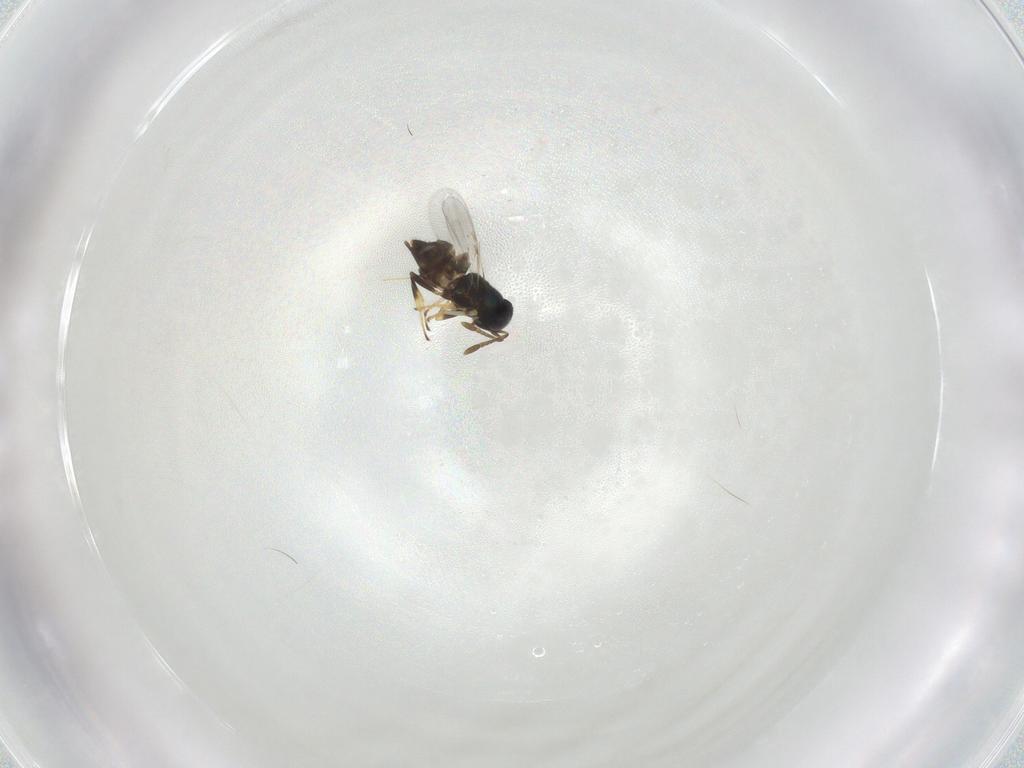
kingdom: Animalia
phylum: Arthropoda
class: Insecta
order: Hymenoptera
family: Encyrtidae
